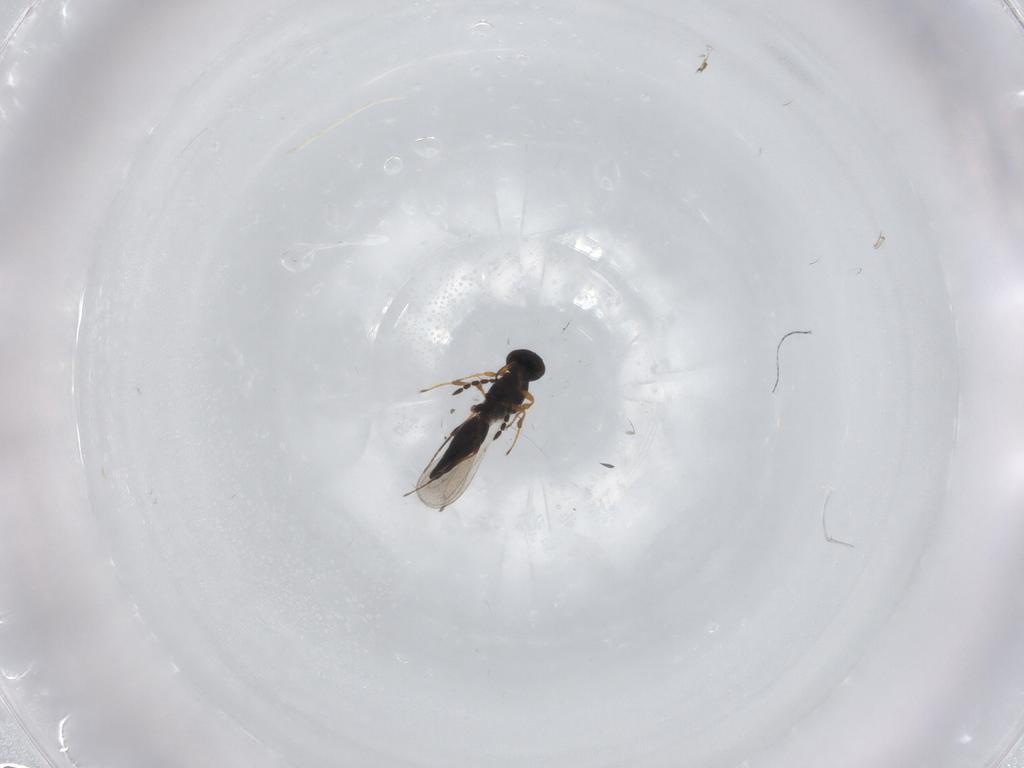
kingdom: Animalia
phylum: Arthropoda
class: Insecta
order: Hymenoptera
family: Platygastridae
